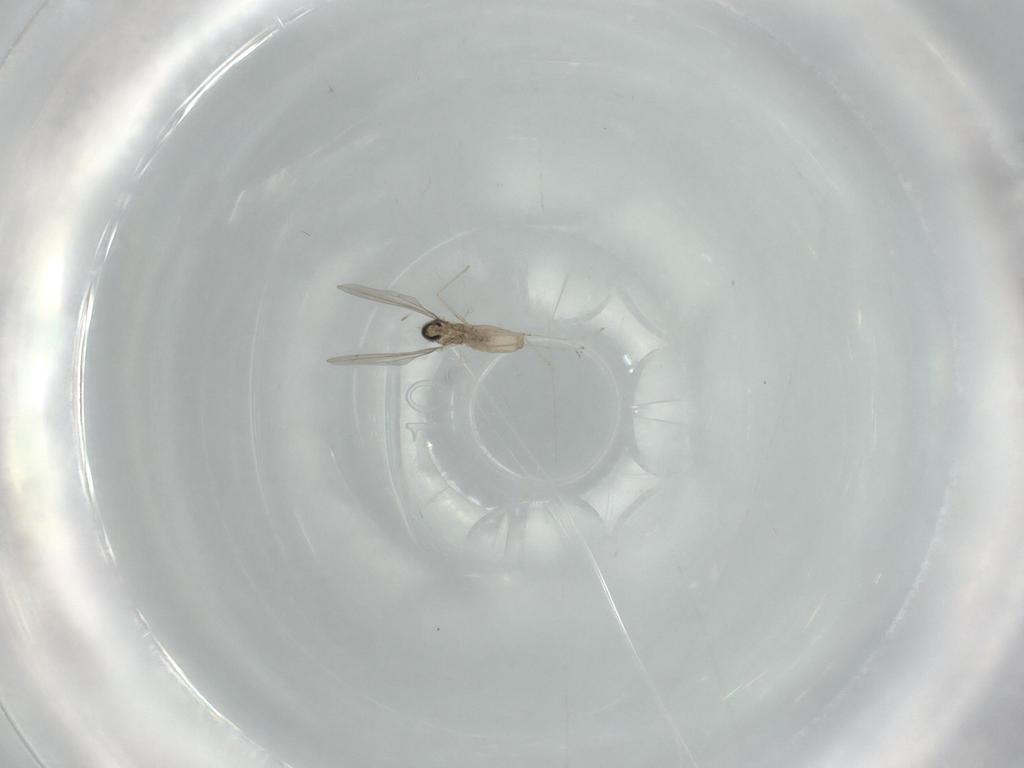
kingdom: Animalia
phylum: Arthropoda
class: Insecta
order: Diptera
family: Cecidomyiidae
